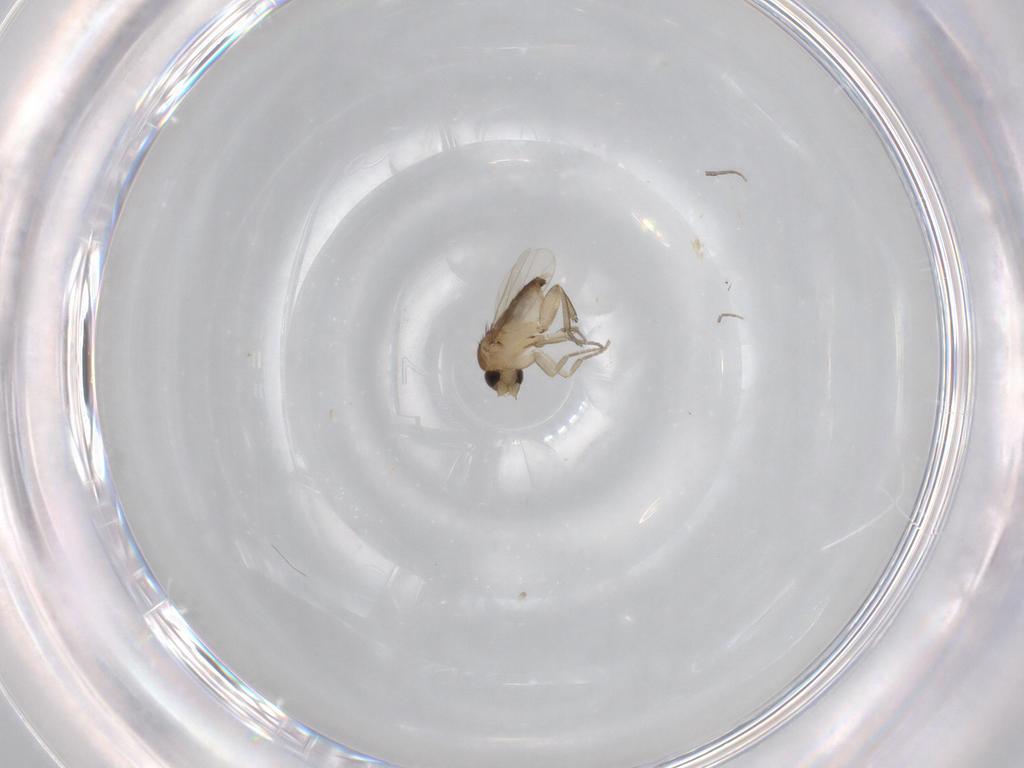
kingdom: Animalia
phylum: Arthropoda
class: Insecta
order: Diptera
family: Phoridae
